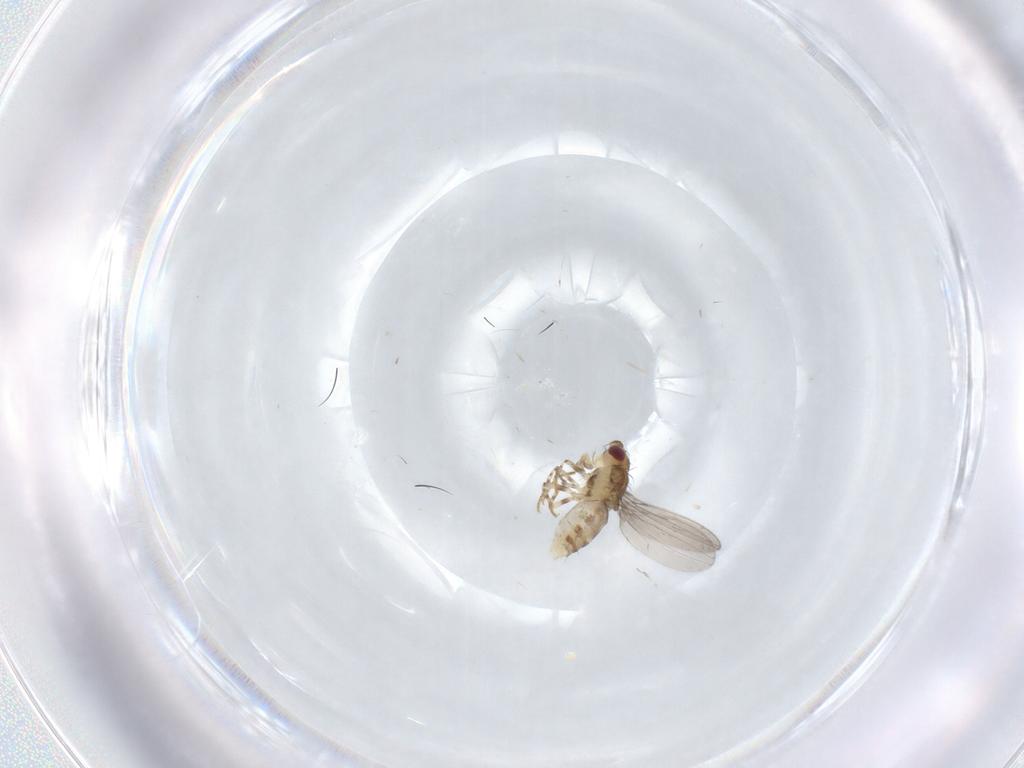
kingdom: Animalia
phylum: Arthropoda
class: Insecta
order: Diptera
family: Asteiidae
